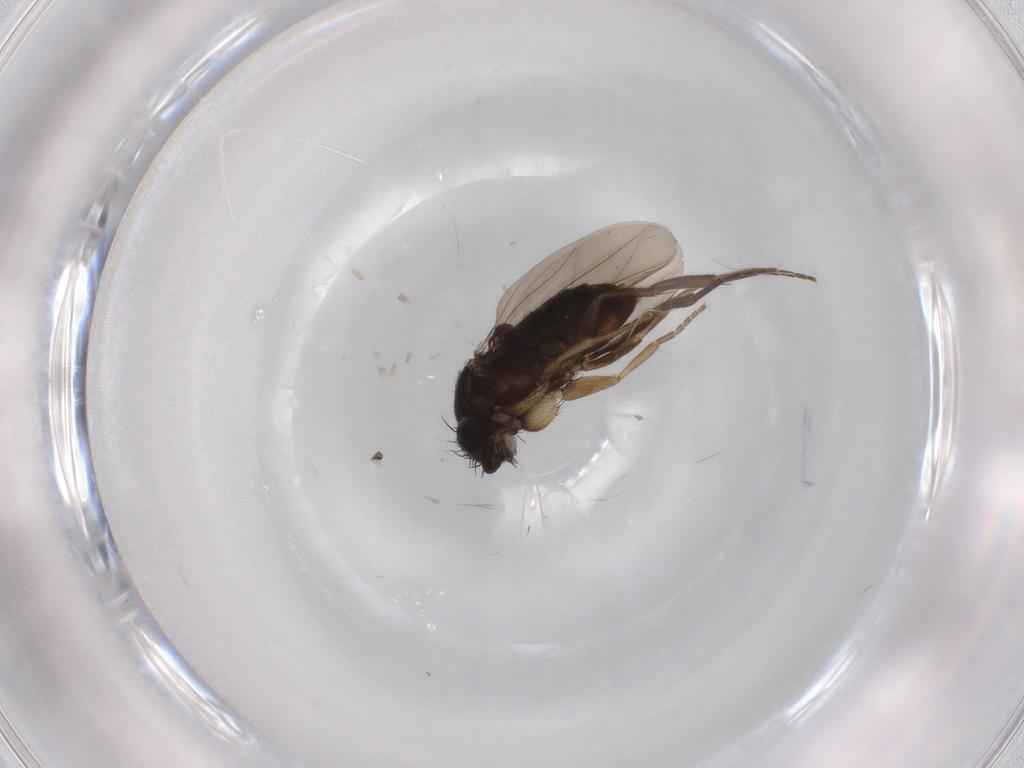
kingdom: Animalia
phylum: Arthropoda
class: Insecta
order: Diptera
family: Phoridae
